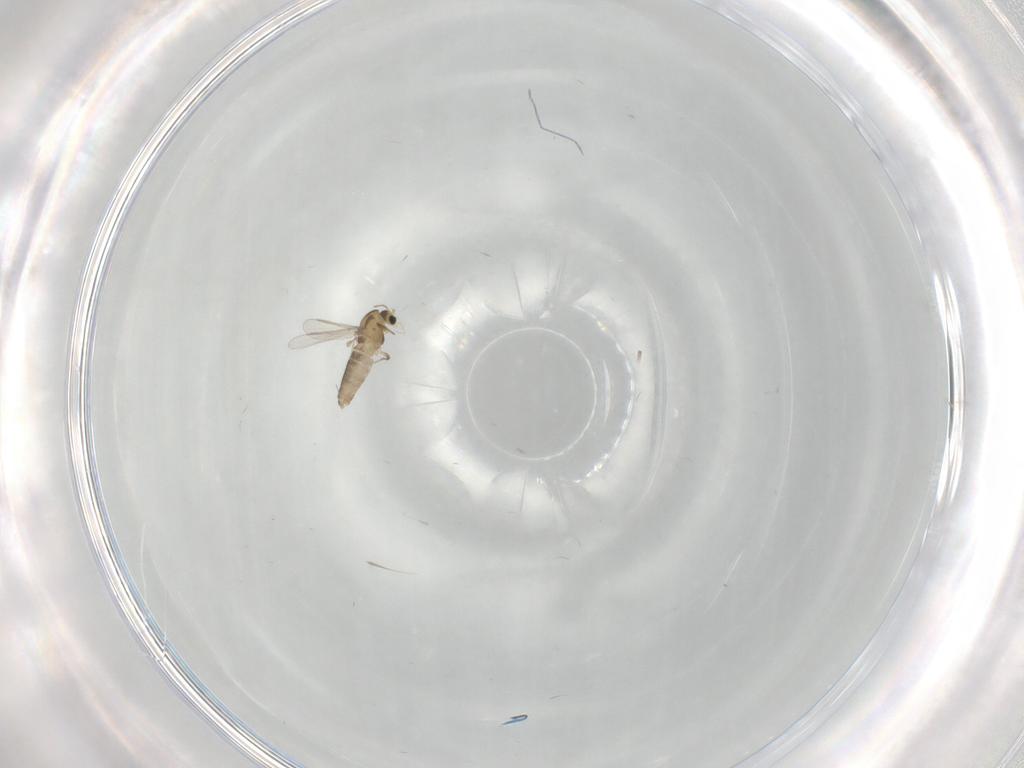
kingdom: Animalia
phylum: Arthropoda
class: Insecta
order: Diptera
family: Chironomidae
